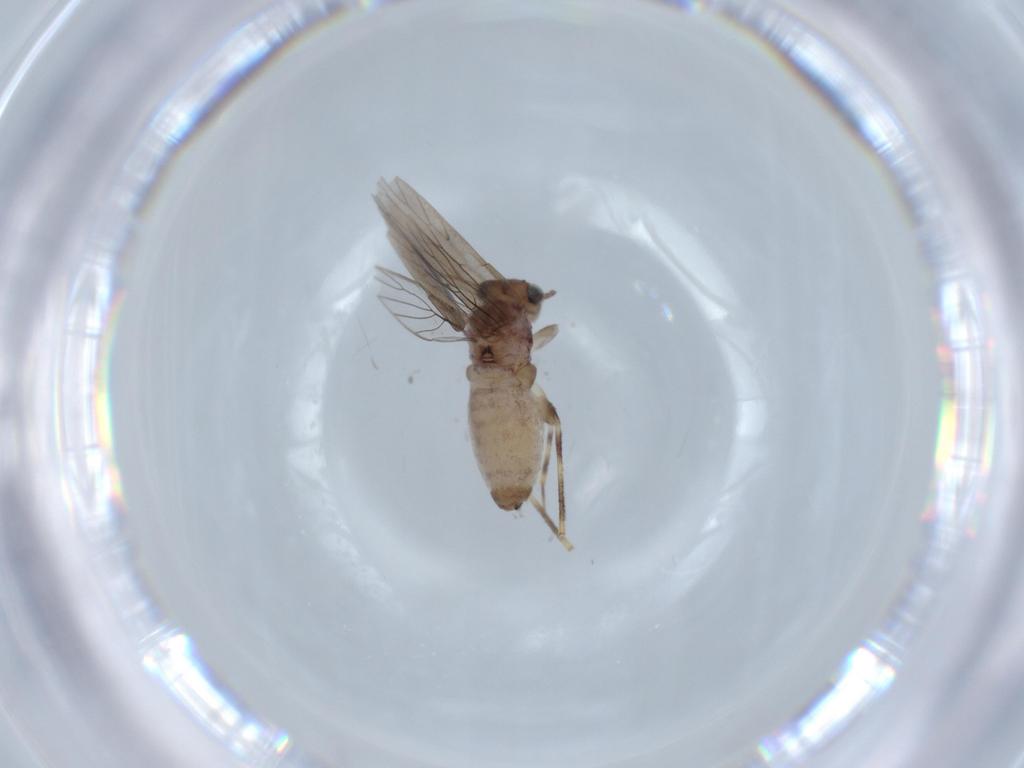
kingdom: Animalia
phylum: Arthropoda
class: Insecta
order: Psocodea
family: Lepidopsocidae
